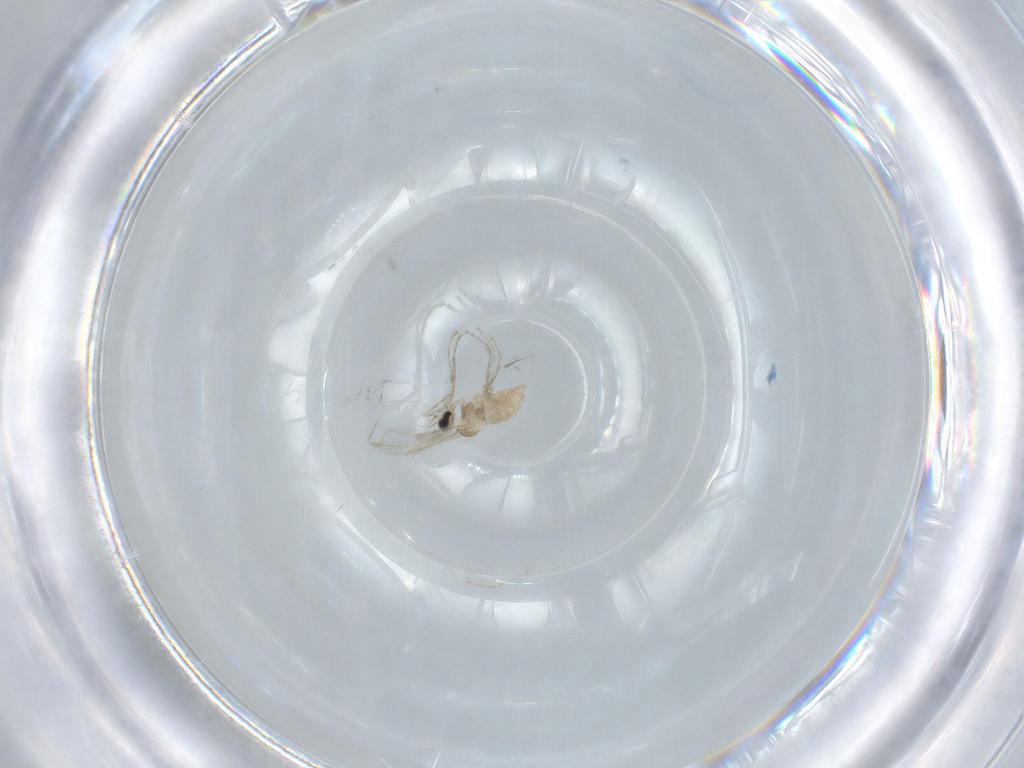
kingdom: Animalia
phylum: Arthropoda
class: Insecta
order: Diptera
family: Cecidomyiidae
